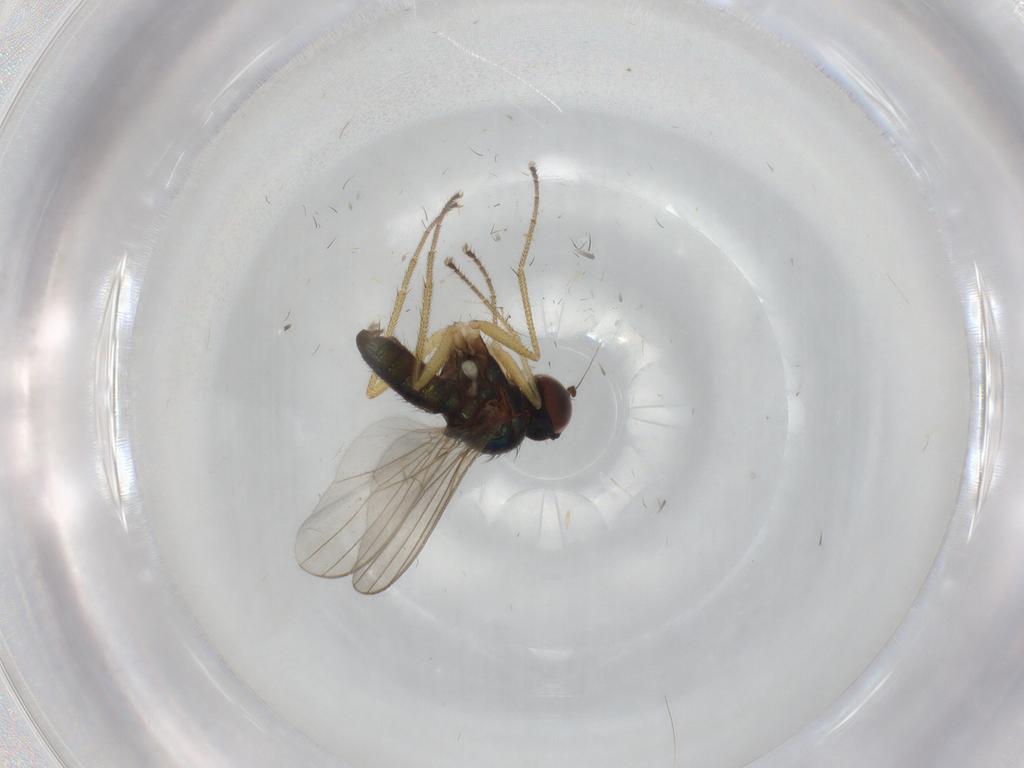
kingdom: Animalia
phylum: Arthropoda
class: Insecta
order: Diptera
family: Dolichopodidae
